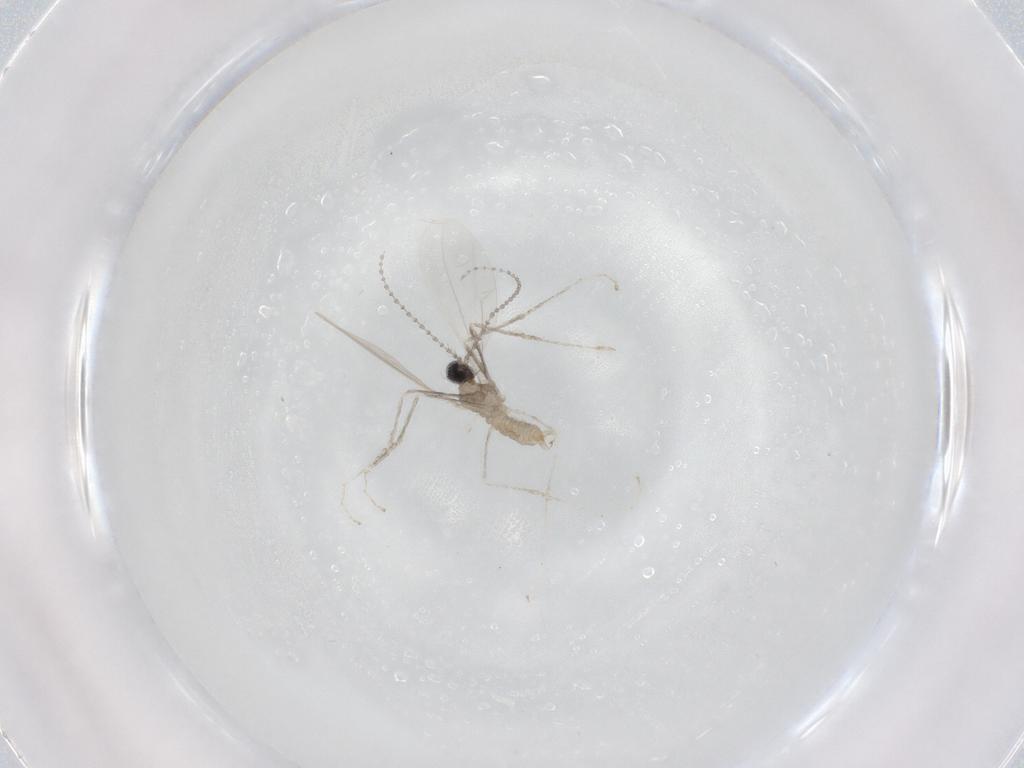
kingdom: Animalia
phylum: Arthropoda
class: Insecta
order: Diptera
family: Cecidomyiidae
